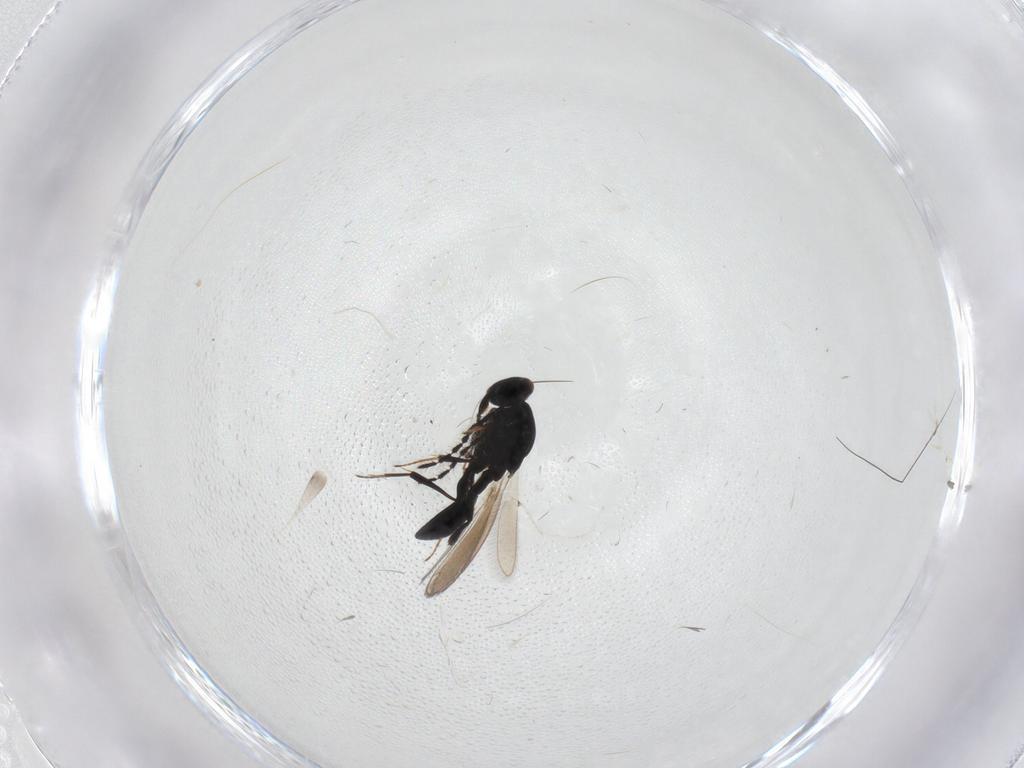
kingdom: Animalia
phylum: Arthropoda
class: Insecta
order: Hymenoptera
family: Platygastridae
